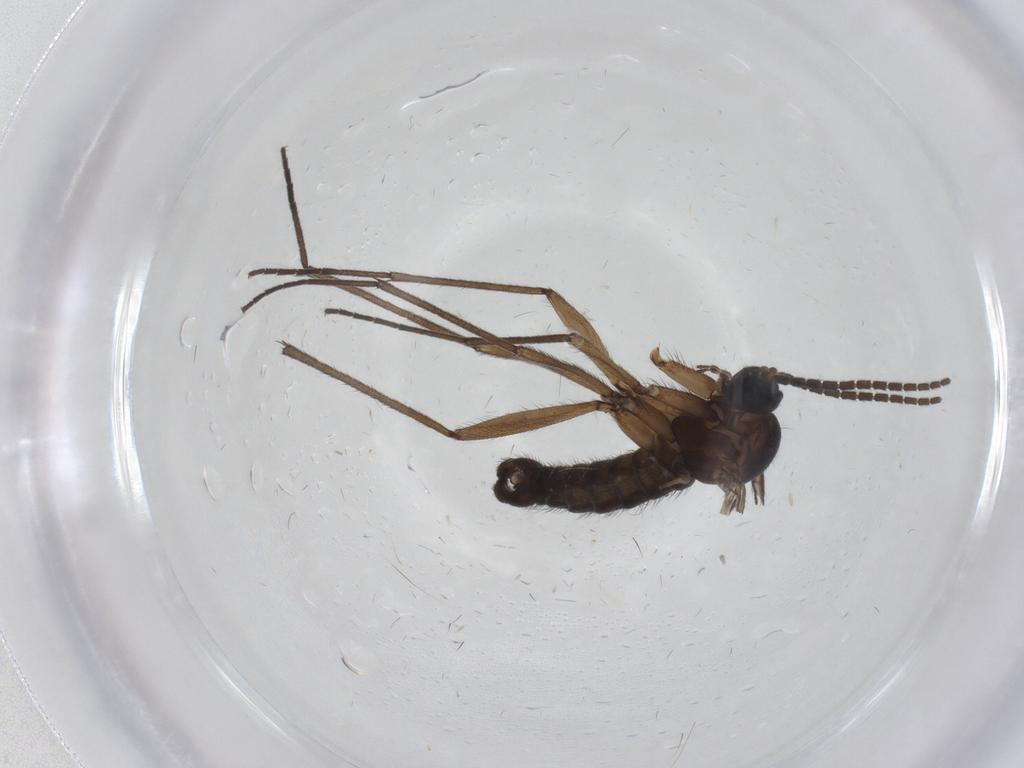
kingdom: Animalia
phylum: Arthropoda
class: Insecta
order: Diptera
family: Sciaridae
